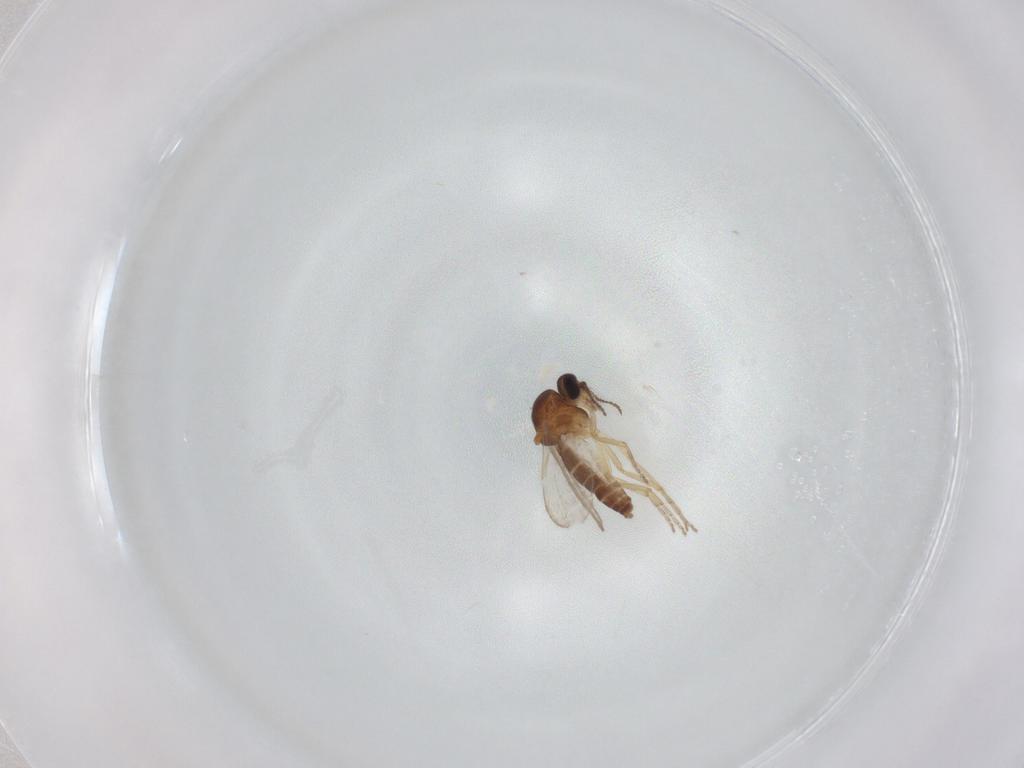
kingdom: Animalia
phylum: Arthropoda
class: Insecta
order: Diptera
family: Ceratopogonidae
